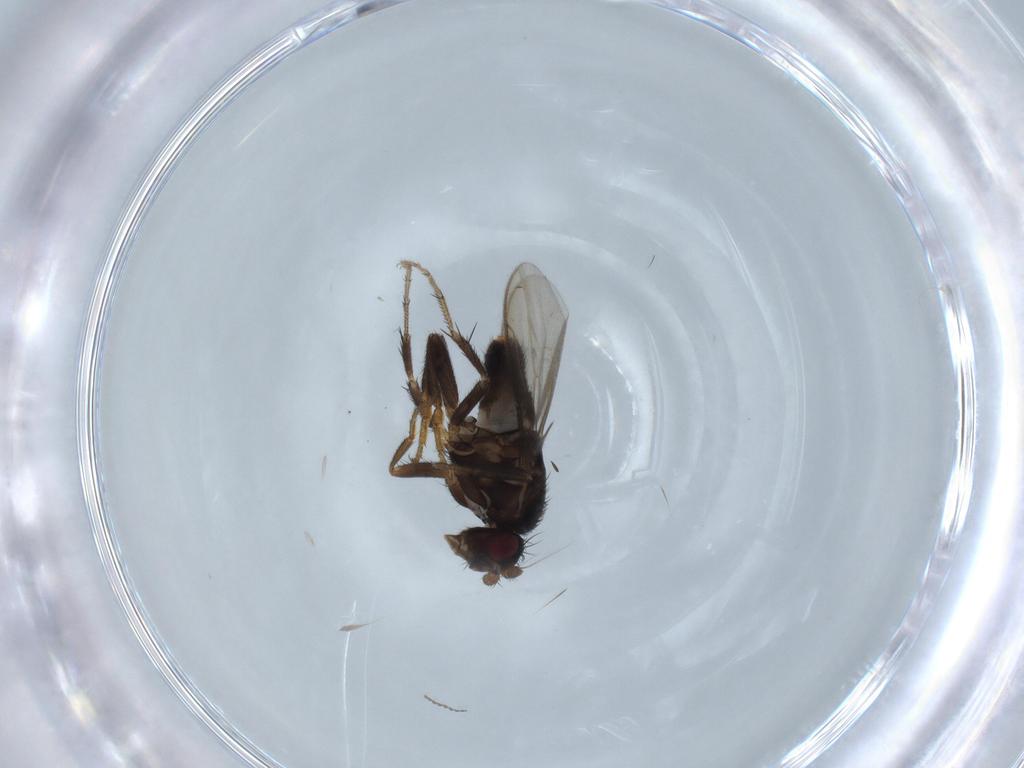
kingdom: Animalia
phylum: Arthropoda
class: Insecta
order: Diptera
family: Sphaeroceridae
